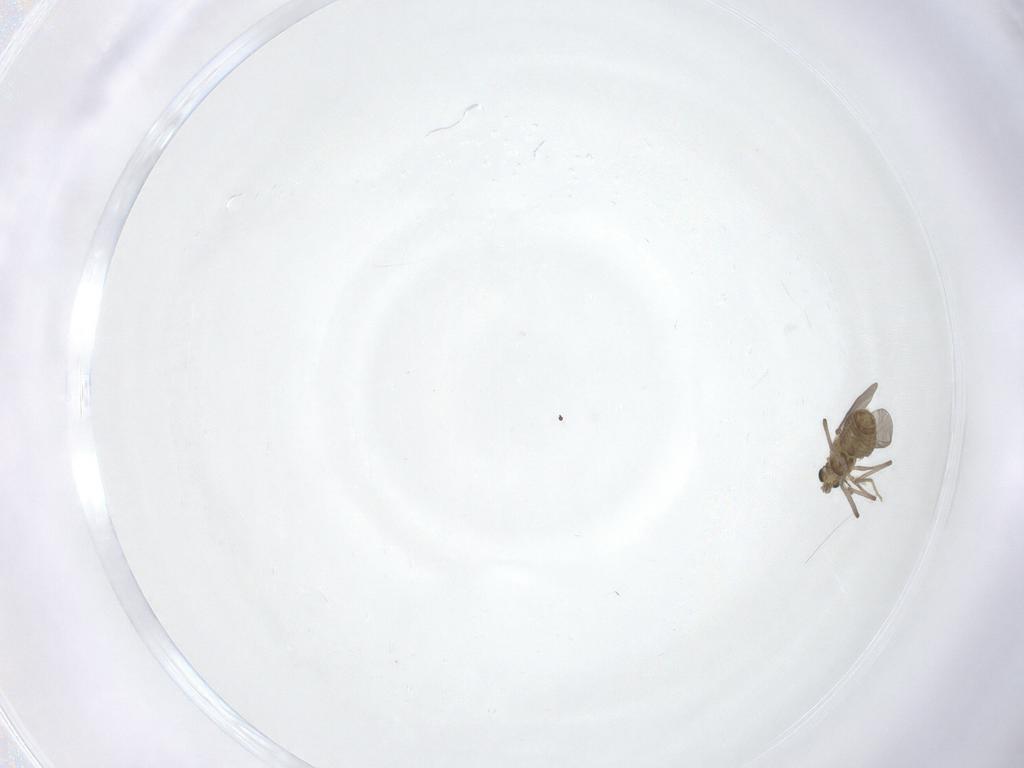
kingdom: Animalia
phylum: Arthropoda
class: Insecta
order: Diptera
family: Chironomidae
